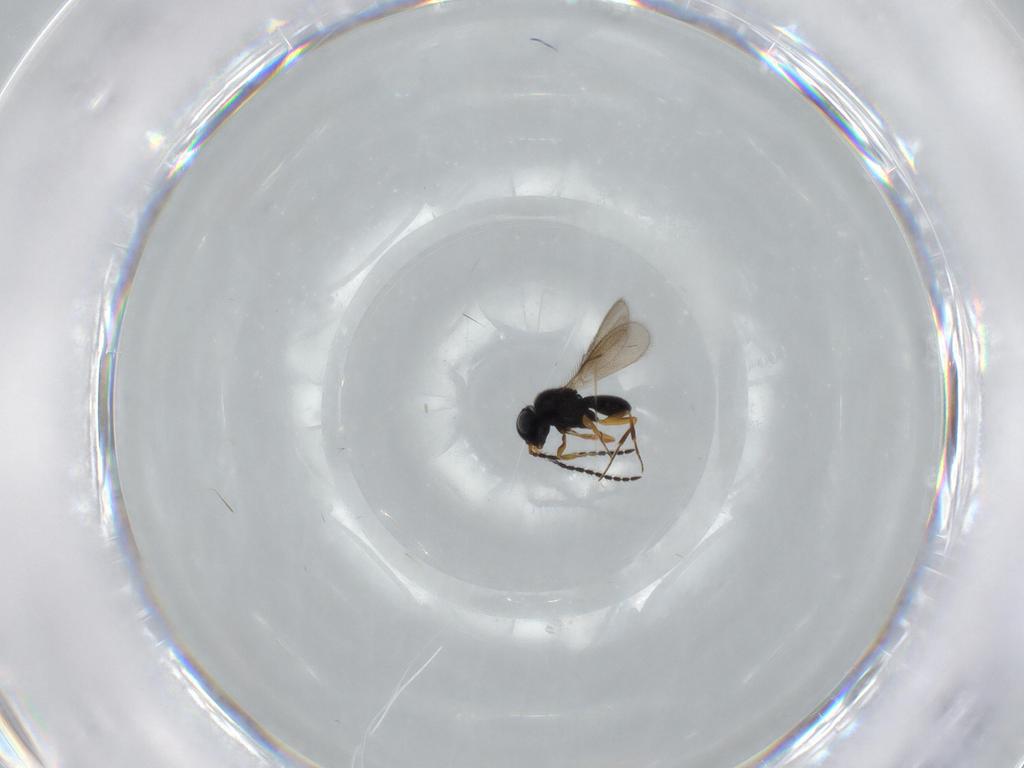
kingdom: Animalia
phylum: Arthropoda
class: Insecta
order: Hymenoptera
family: Scelionidae
